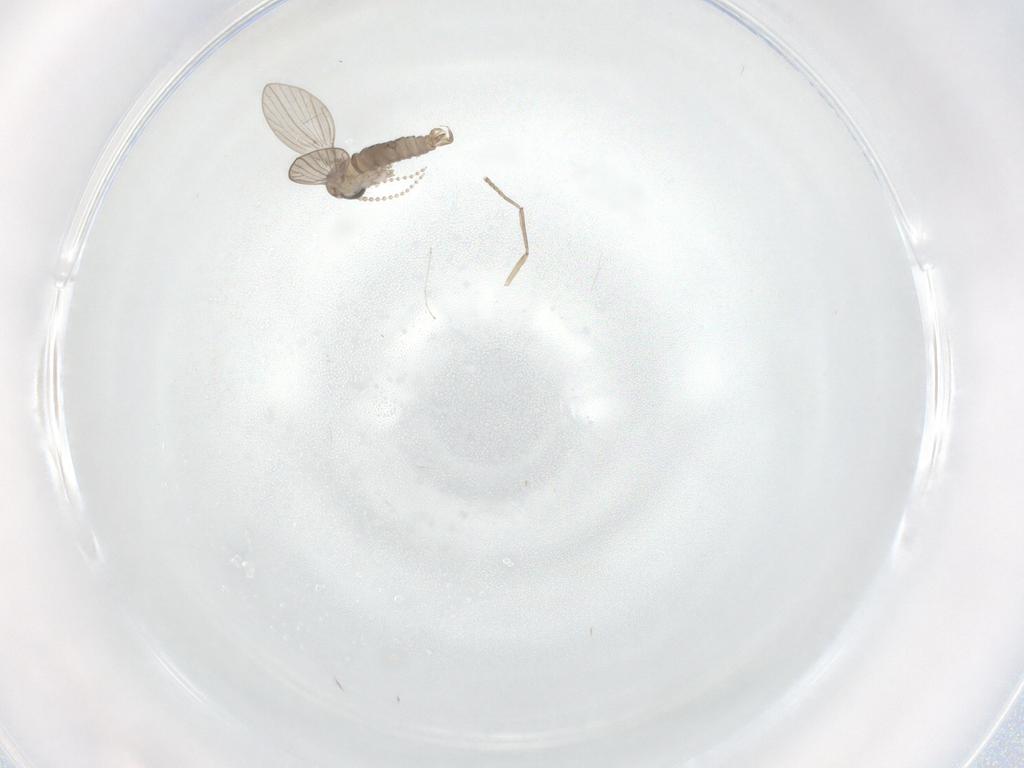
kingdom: Animalia
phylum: Arthropoda
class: Insecta
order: Diptera
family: Psychodidae
